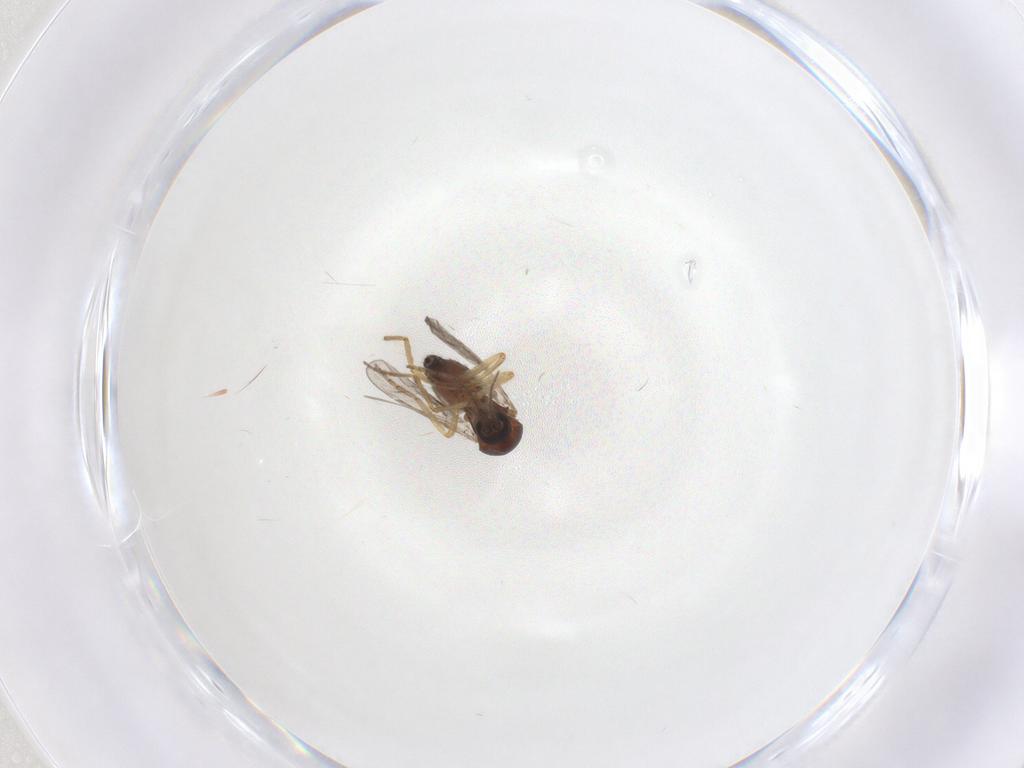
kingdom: Animalia
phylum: Arthropoda
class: Insecta
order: Diptera
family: Ceratopogonidae
